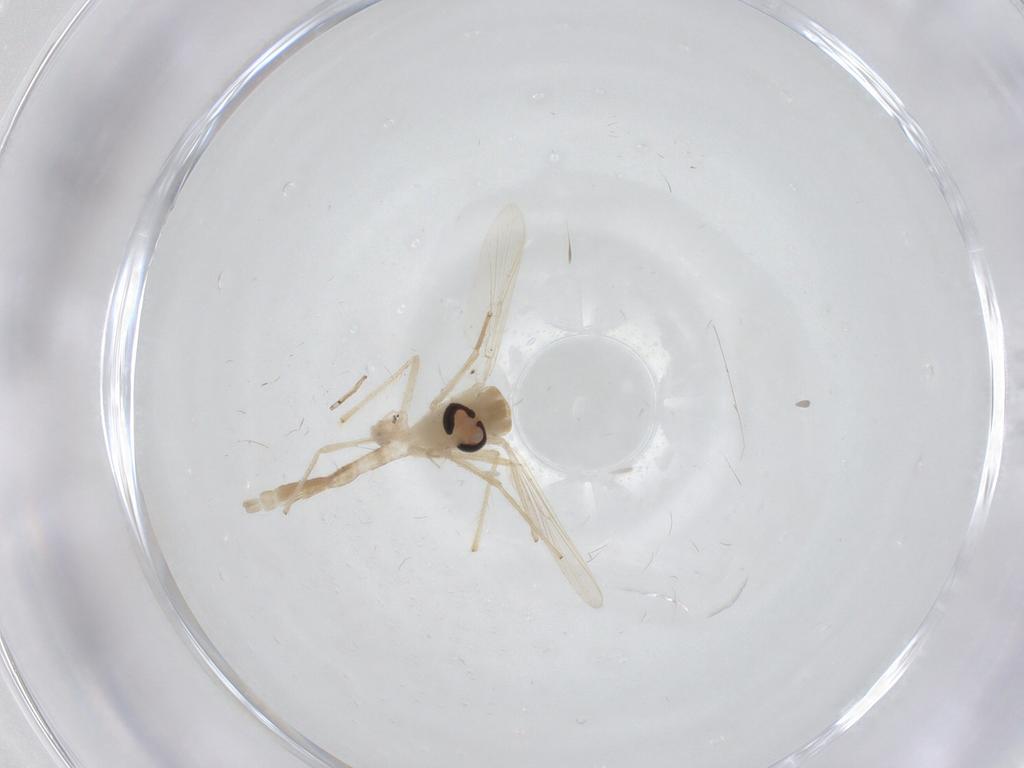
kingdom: Animalia
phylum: Arthropoda
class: Insecta
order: Diptera
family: Chironomidae
